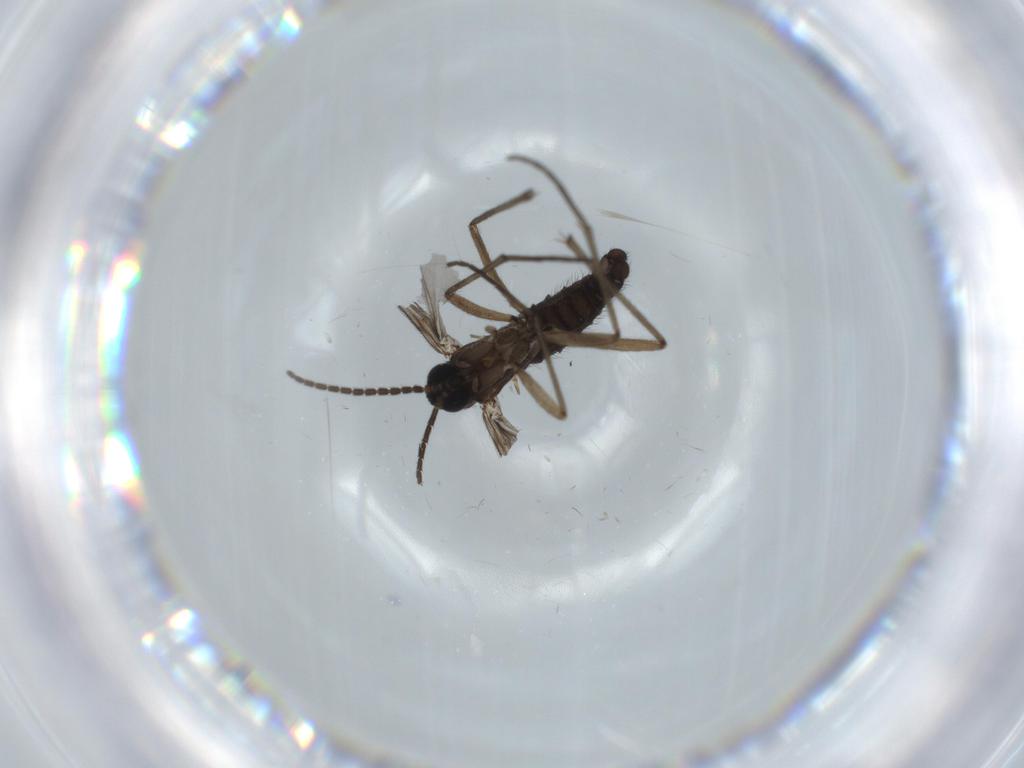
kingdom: Animalia
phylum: Arthropoda
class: Insecta
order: Diptera
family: Sciaridae
